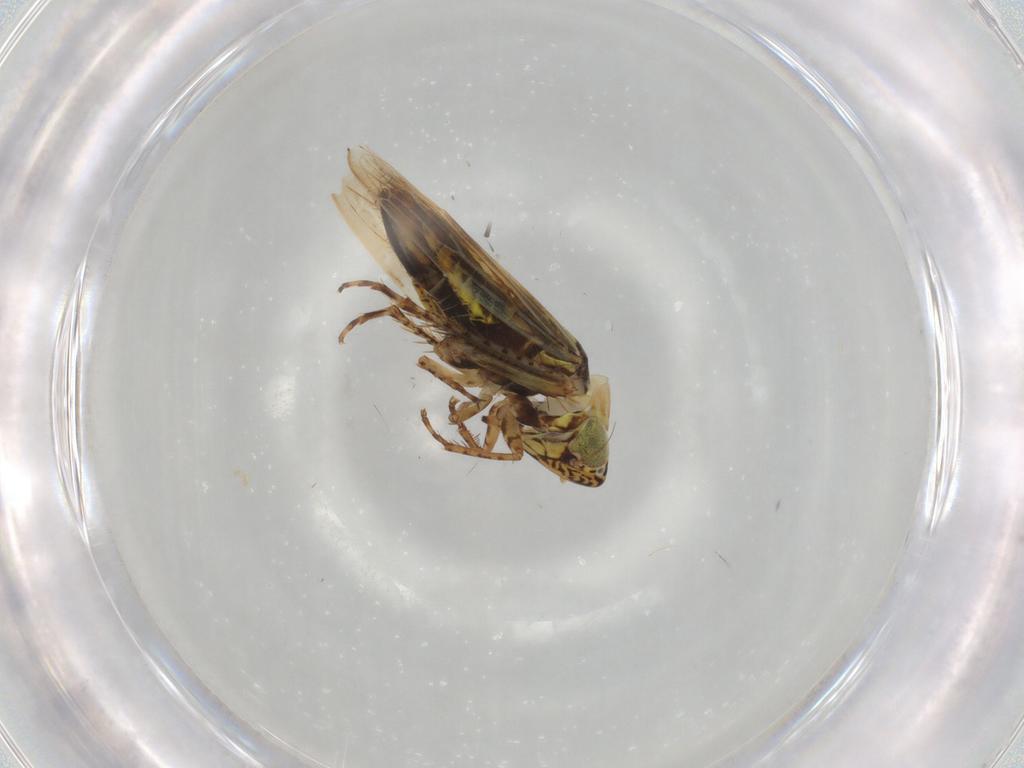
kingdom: Animalia
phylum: Arthropoda
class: Insecta
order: Hemiptera
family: Cicadellidae
